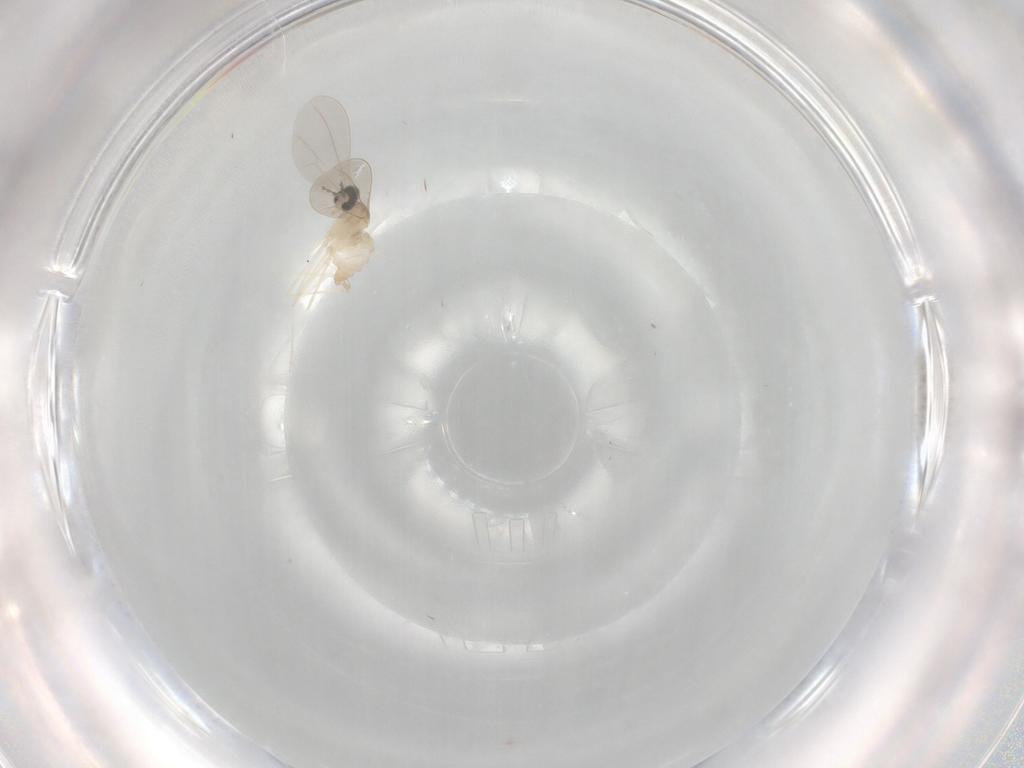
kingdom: Animalia
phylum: Arthropoda
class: Insecta
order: Diptera
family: Cecidomyiidae
